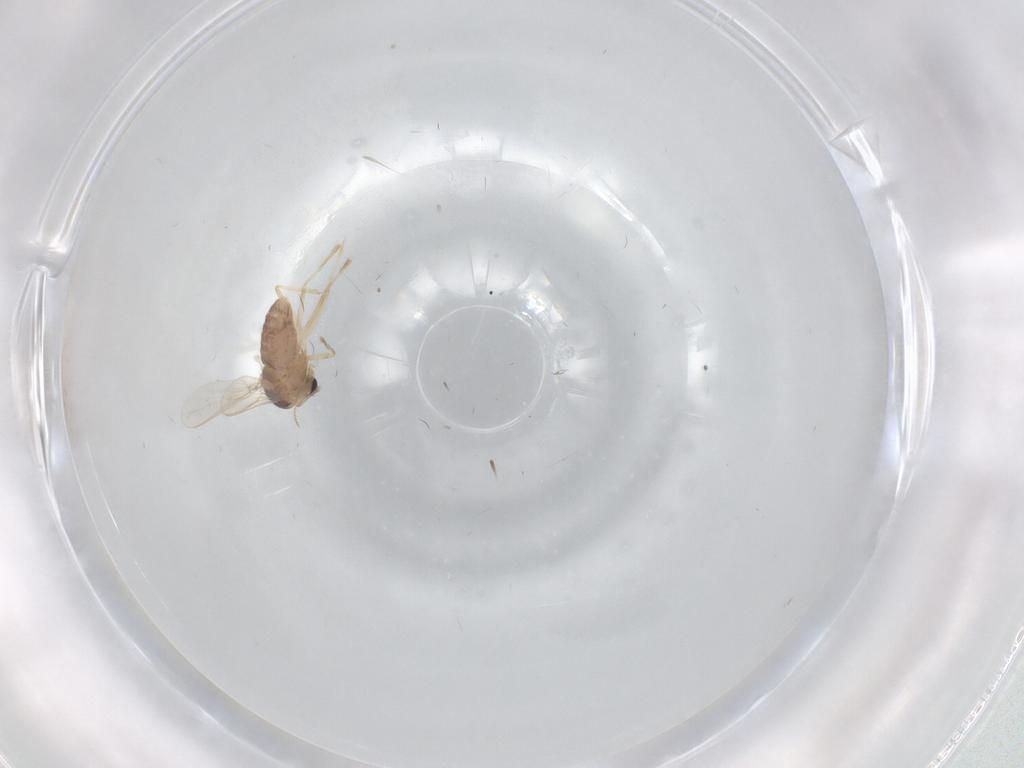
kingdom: Animalia
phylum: Arthropoda
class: Insecta
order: Diptera
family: Chironomidae
